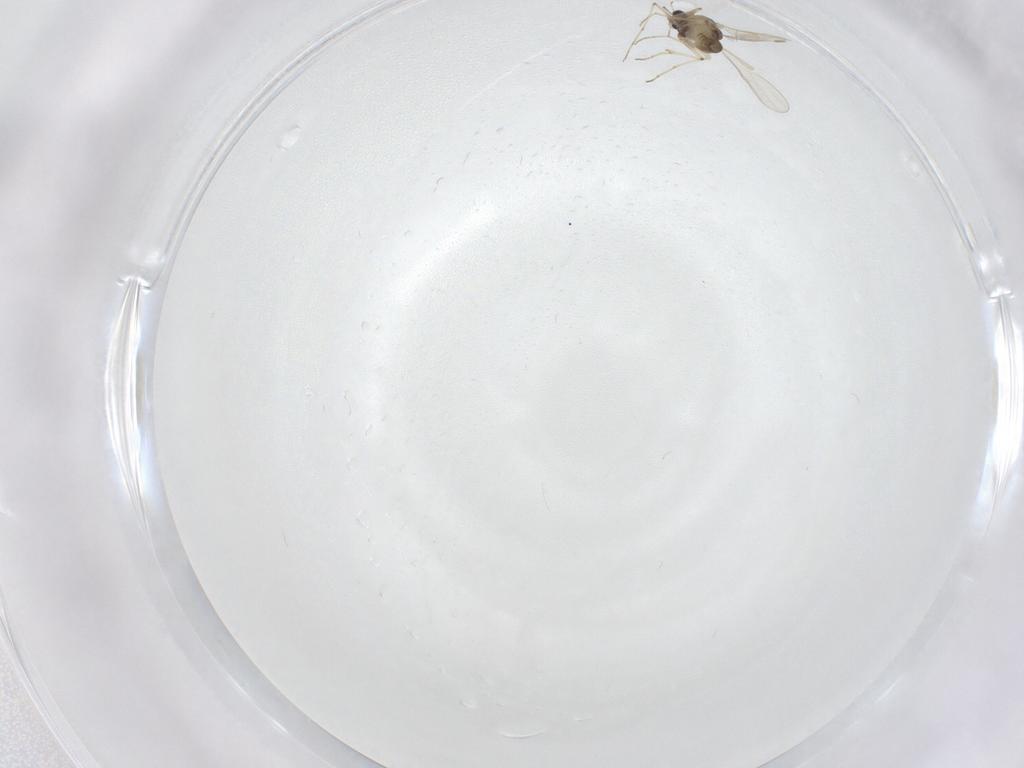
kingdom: Animalia
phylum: Arthropoda
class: Insecta
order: Diptera
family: Chironomidae
